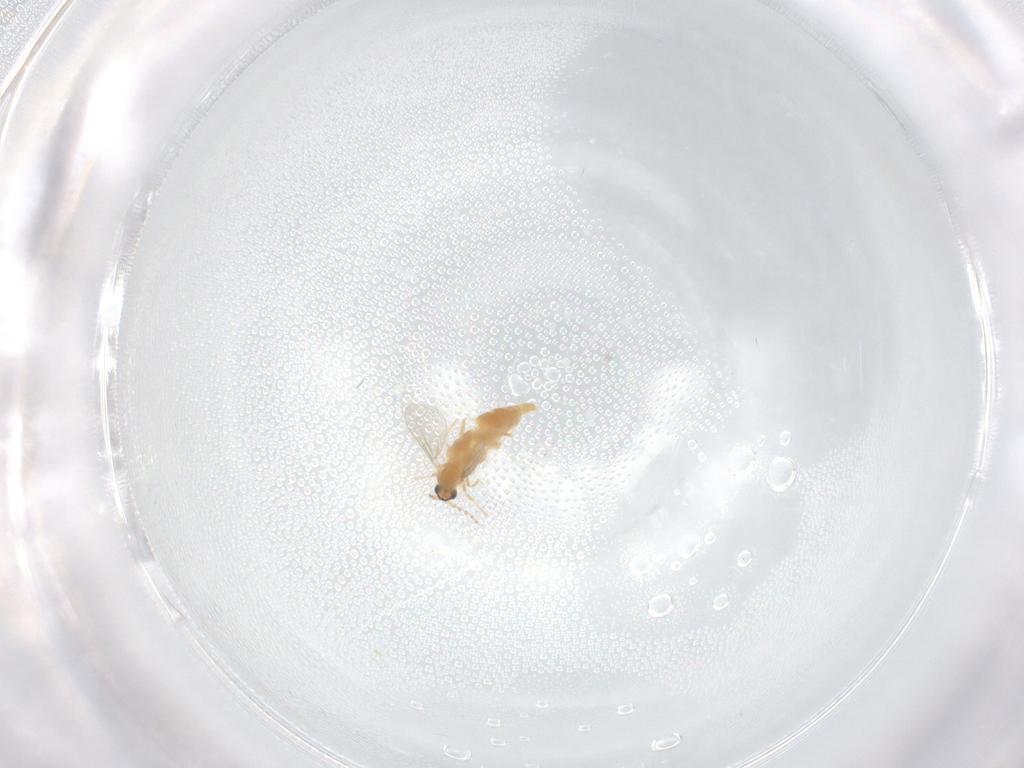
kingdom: Animalia
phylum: Arthropoda
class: Insecta
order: Diptera
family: Cecidomyiidae
